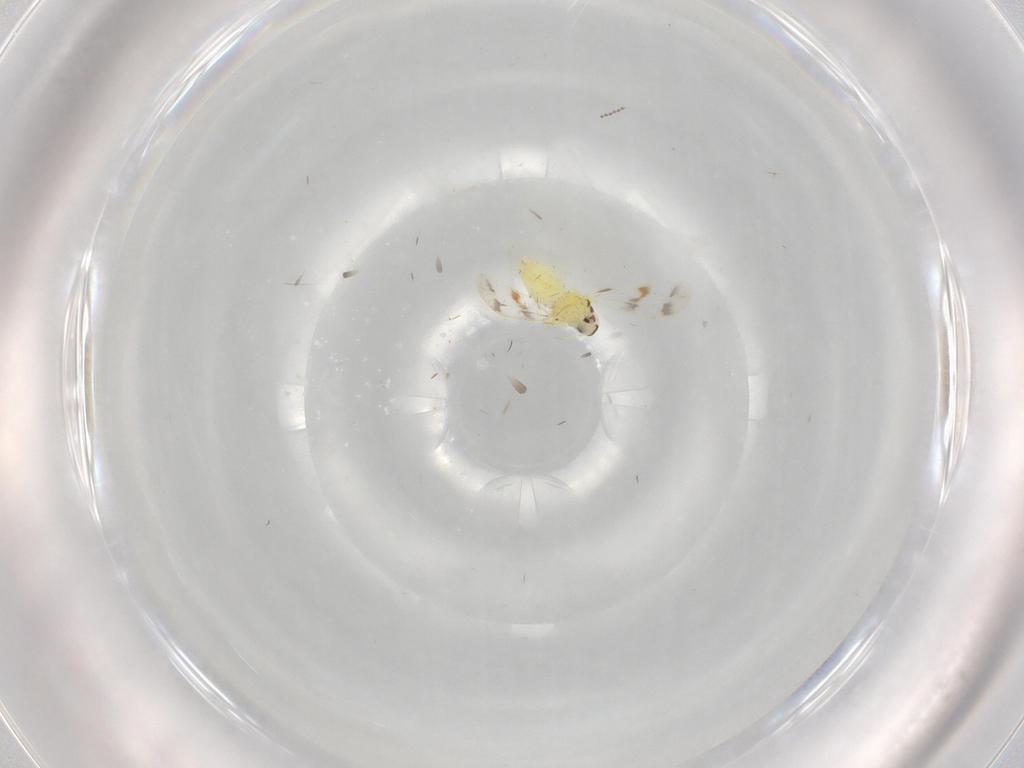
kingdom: Animalia
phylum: Arthropoda
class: Insecta
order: Hemiptera
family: Aleyrodidae
